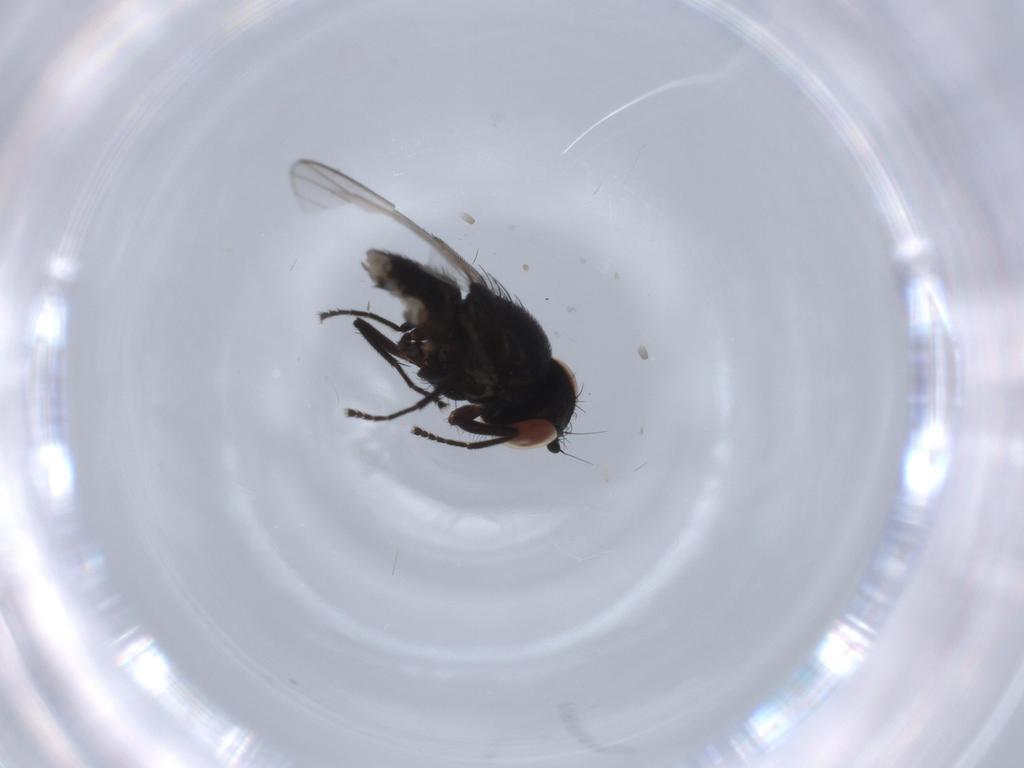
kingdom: Animalia
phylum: Arthropoda
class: Insecta
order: Diptera
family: Milichiidae
